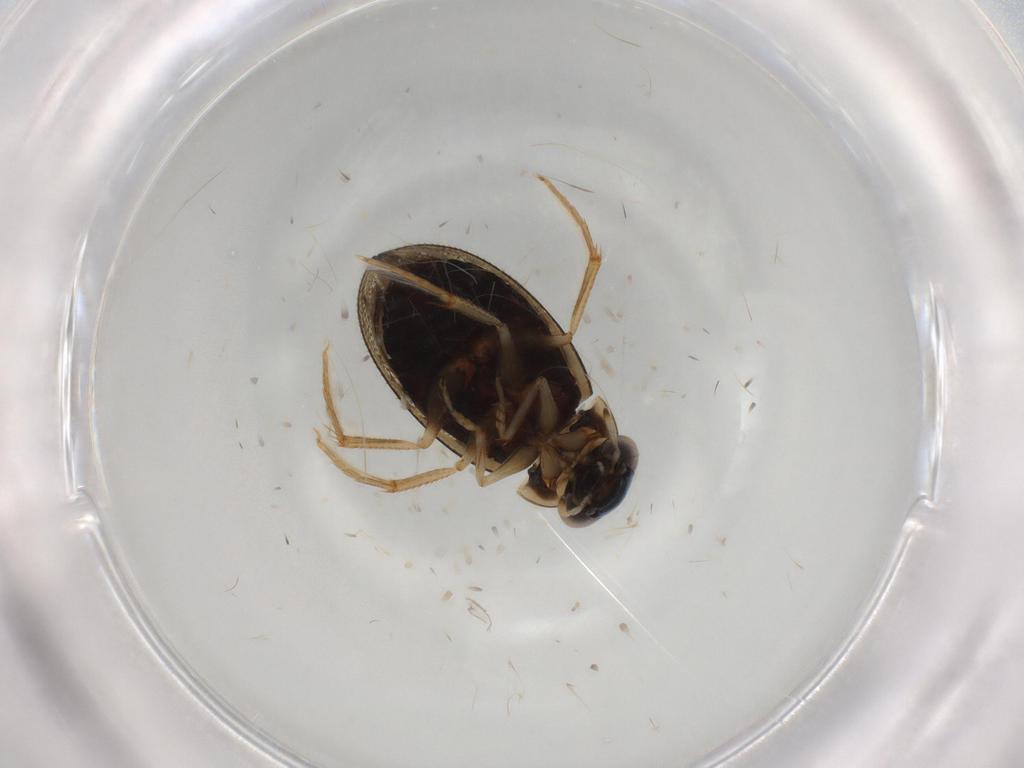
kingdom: Animalia
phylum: Arthropoda
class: Insecta
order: Coleoptera
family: Hydrophilidae
